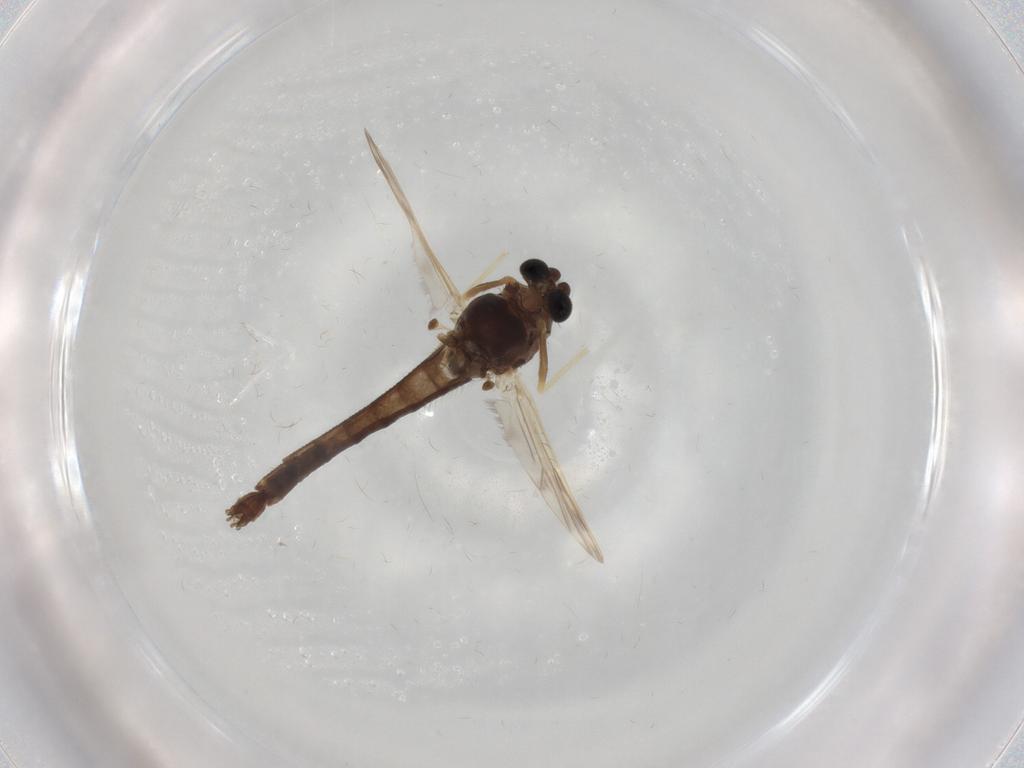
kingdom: Animalia
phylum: Arthropoda
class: Insecta
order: Diptera
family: Chironomidae
